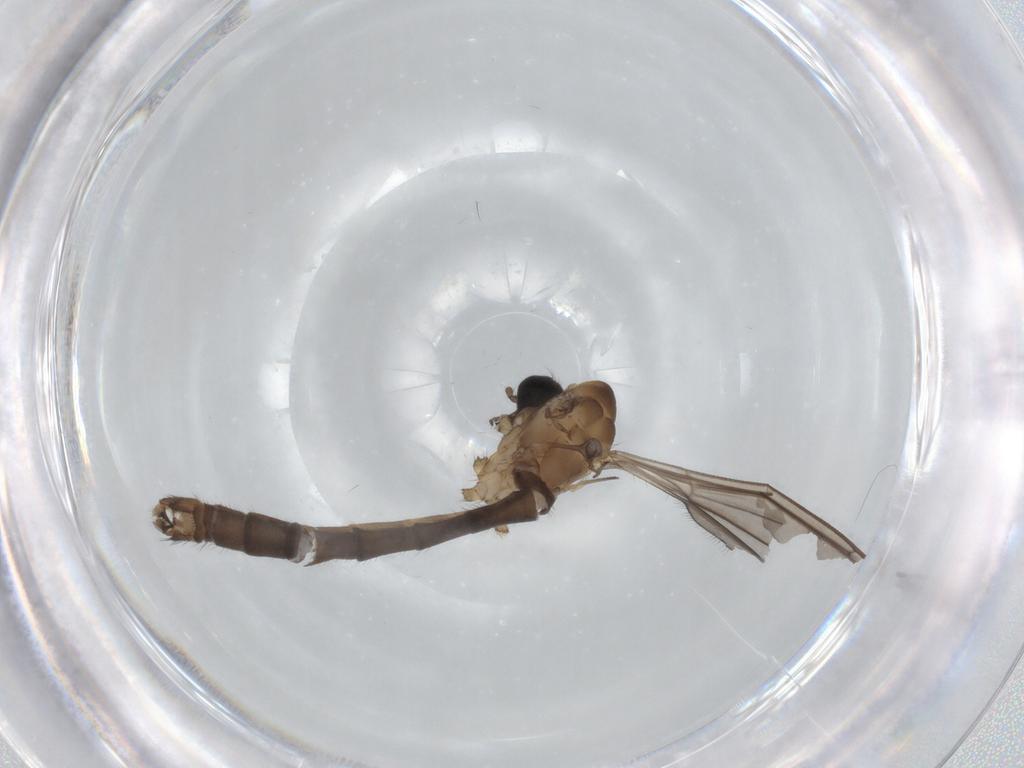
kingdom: Animalia
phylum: Arthropoda
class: Insecta
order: Diptera
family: Chironomidae
